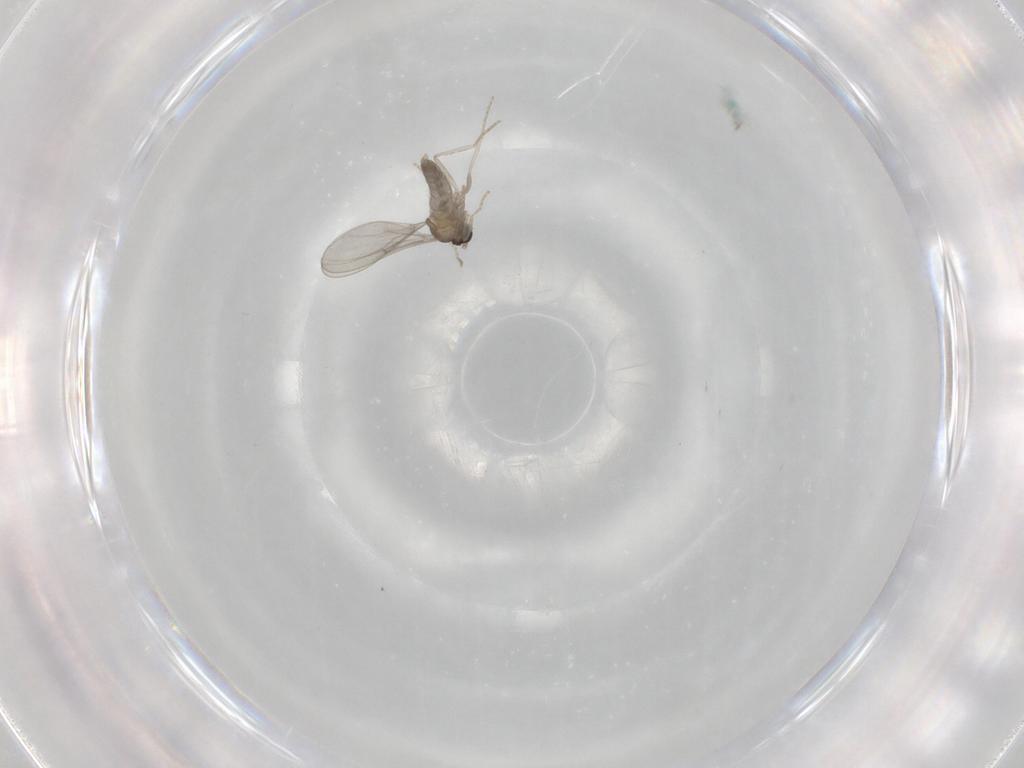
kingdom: Animalia
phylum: Arthropoda
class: Insecta
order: Diptera
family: Cecidomyiidae
